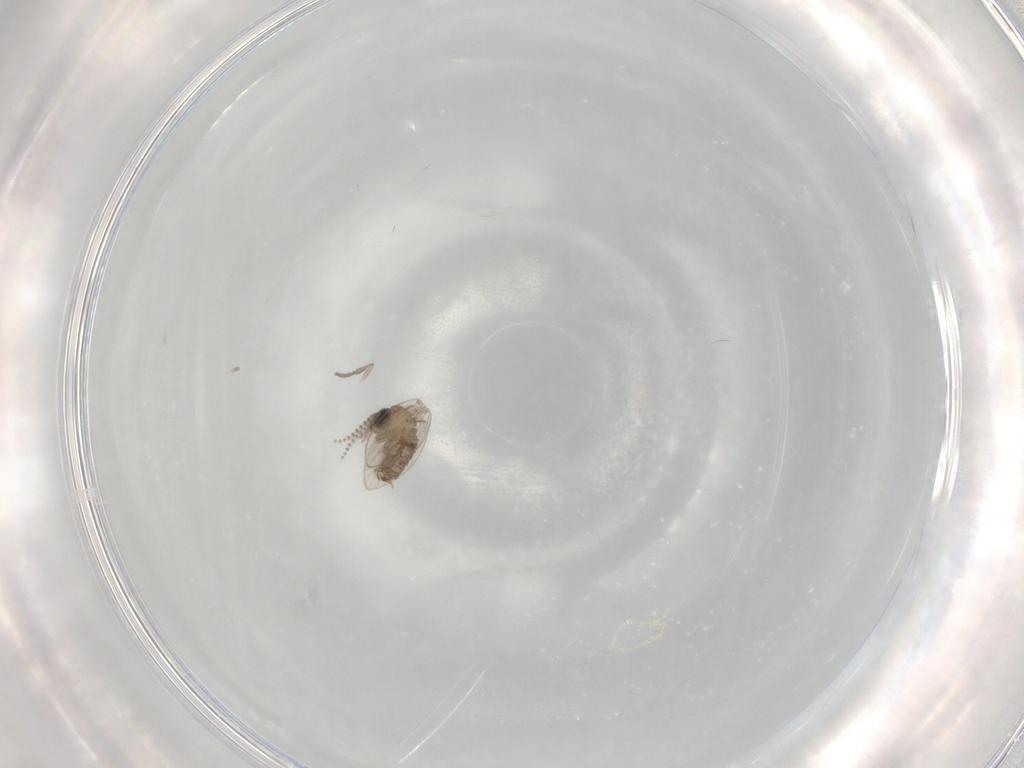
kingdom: Animalia
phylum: Arthropoda
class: Insecta
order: Diptera
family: Psychodidae
